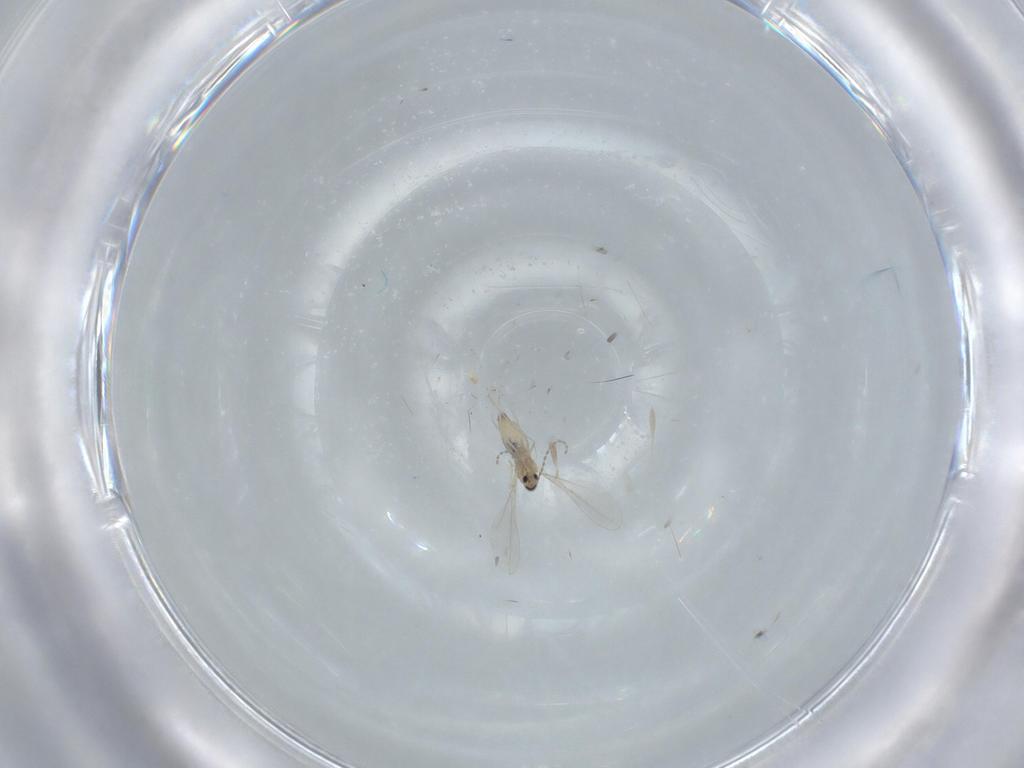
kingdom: Animalia
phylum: Arthropoda
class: Insecta
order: Diptera
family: Cecidomyiidae
